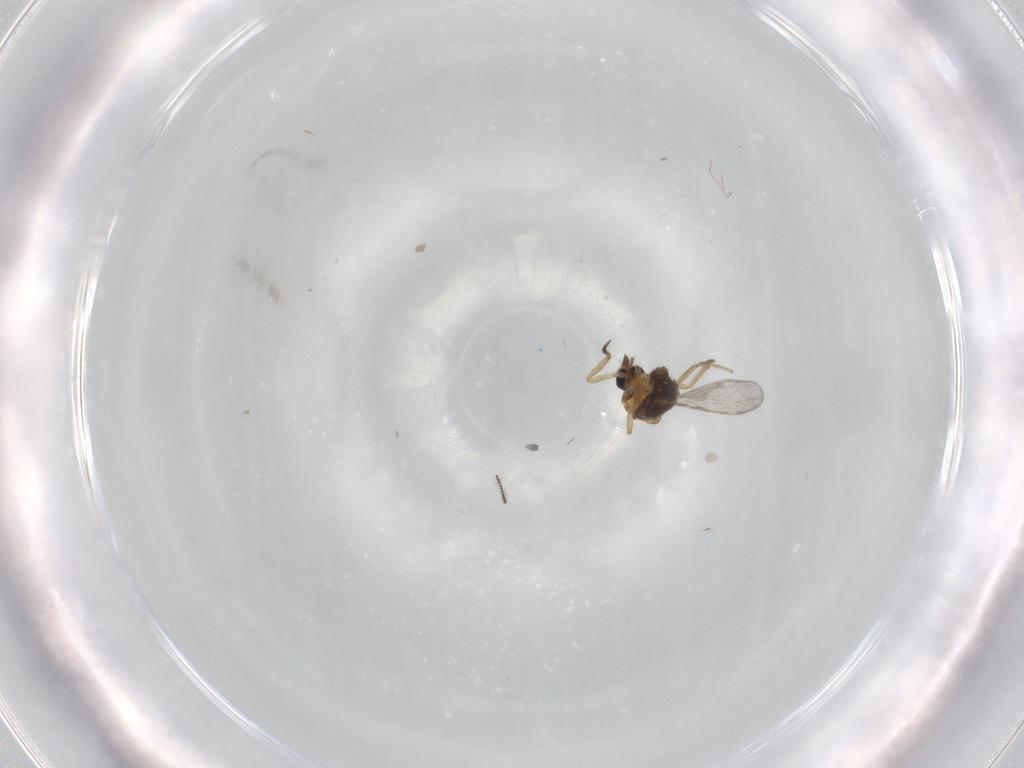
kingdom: Animalia
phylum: Arthropoda
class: Insecta
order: Diptera
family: Ceratopogonidae
